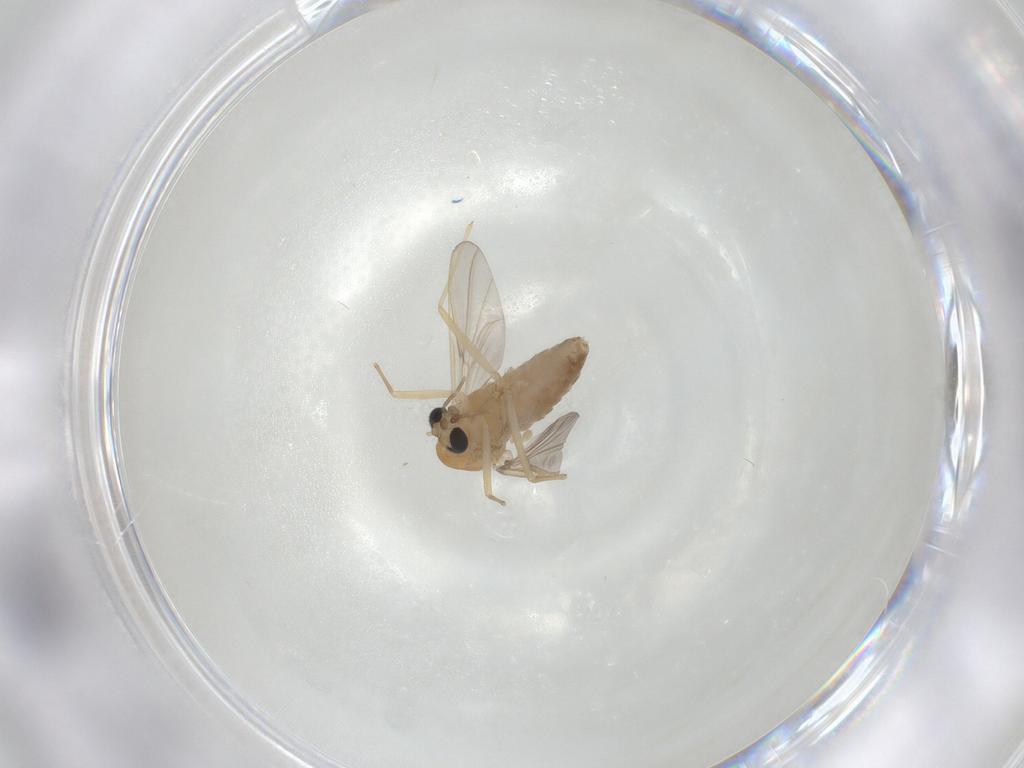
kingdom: Animalia
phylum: Arthropoda
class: Insecta
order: Diptera
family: Chironomidae
